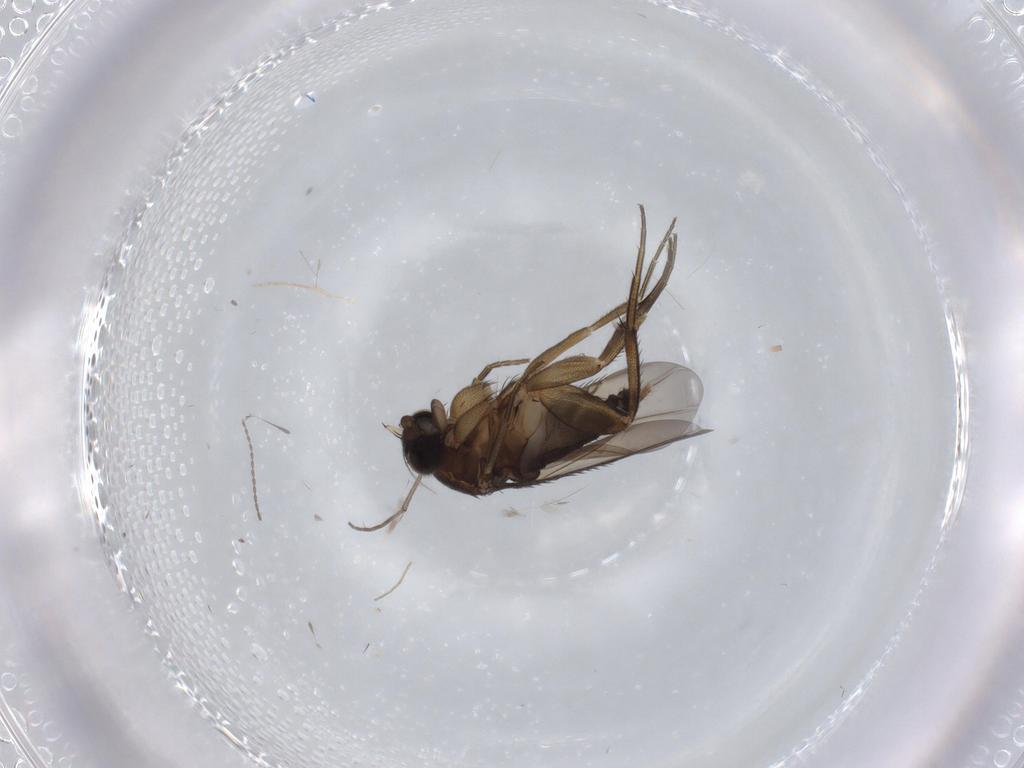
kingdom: Animalia
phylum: Arthropoda
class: Insecta
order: Diptera
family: Phoridae
